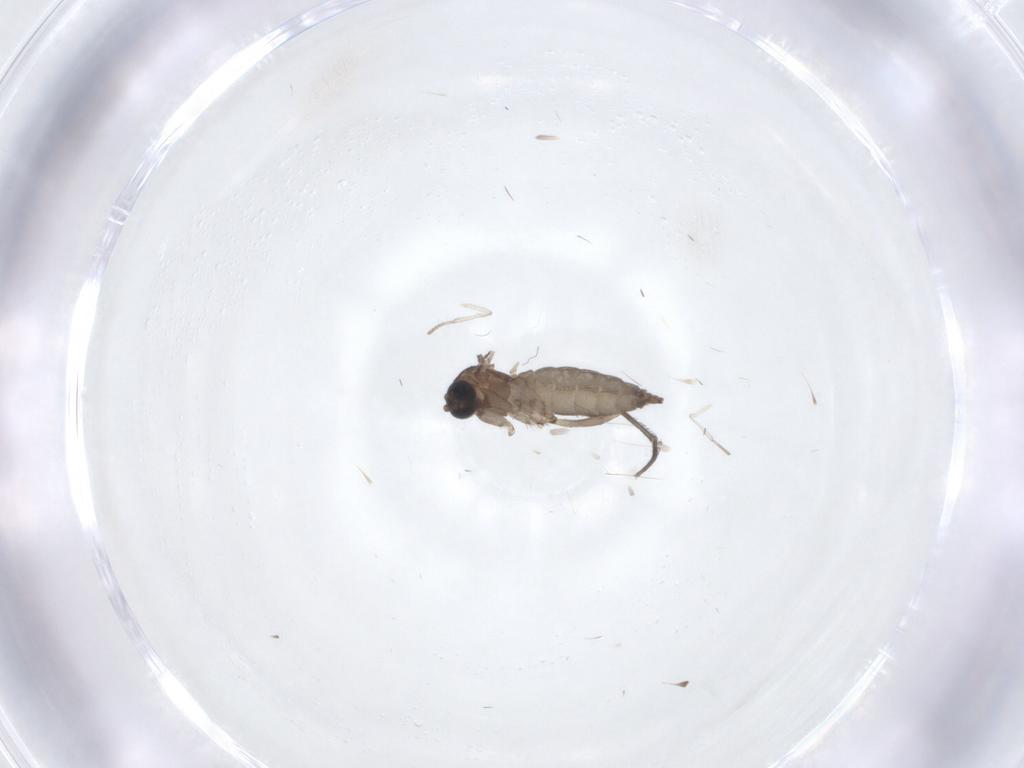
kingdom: Animalia
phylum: Arthropoda
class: Insecta
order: Diptera
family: Sciaridae
